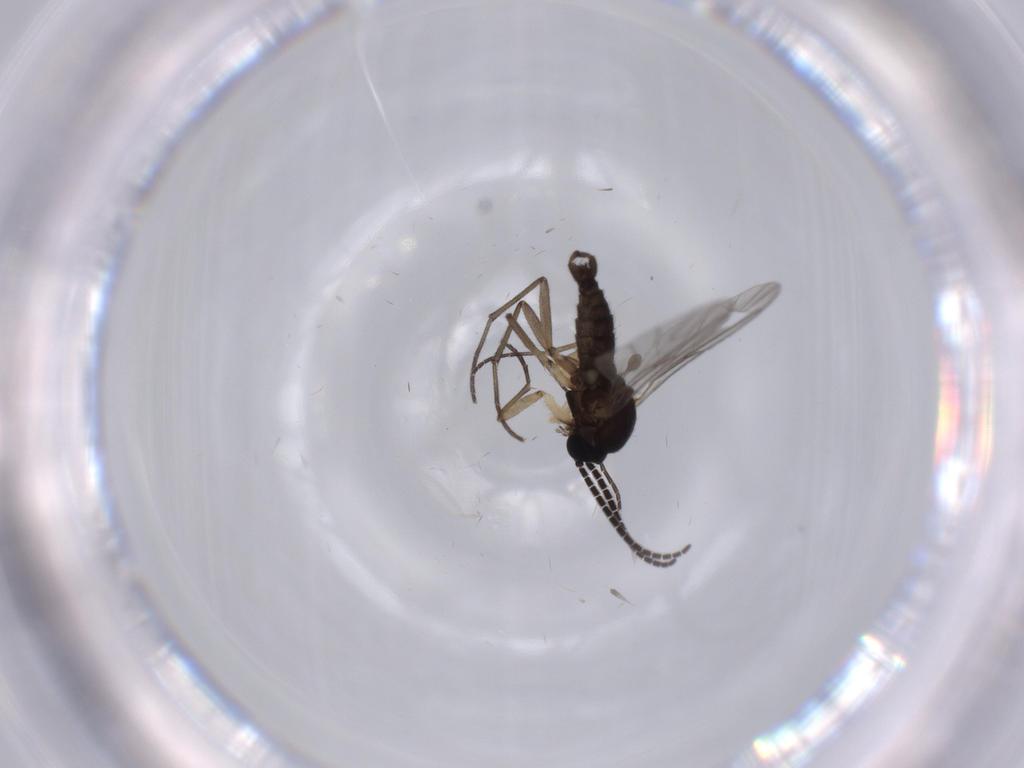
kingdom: Animalia
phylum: Arthropoda
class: Insecta
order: Diptera
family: Sciaridae
